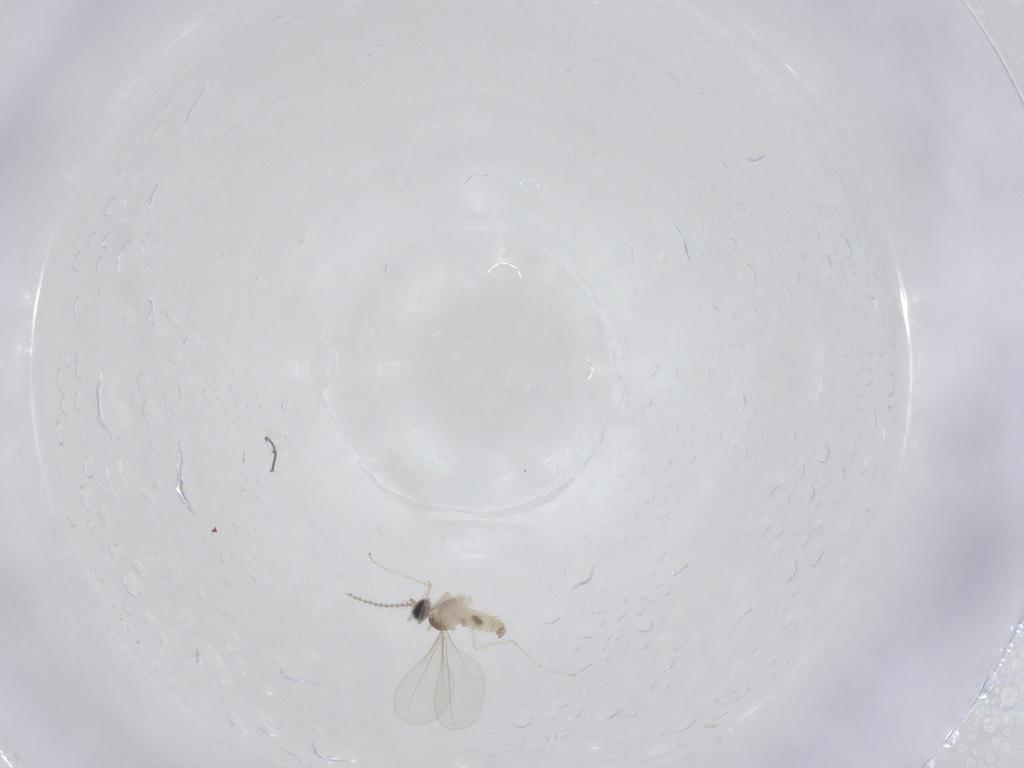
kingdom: Animalia
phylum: Arthropoda
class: Insecta
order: Diptera
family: Cecidomyiidae
